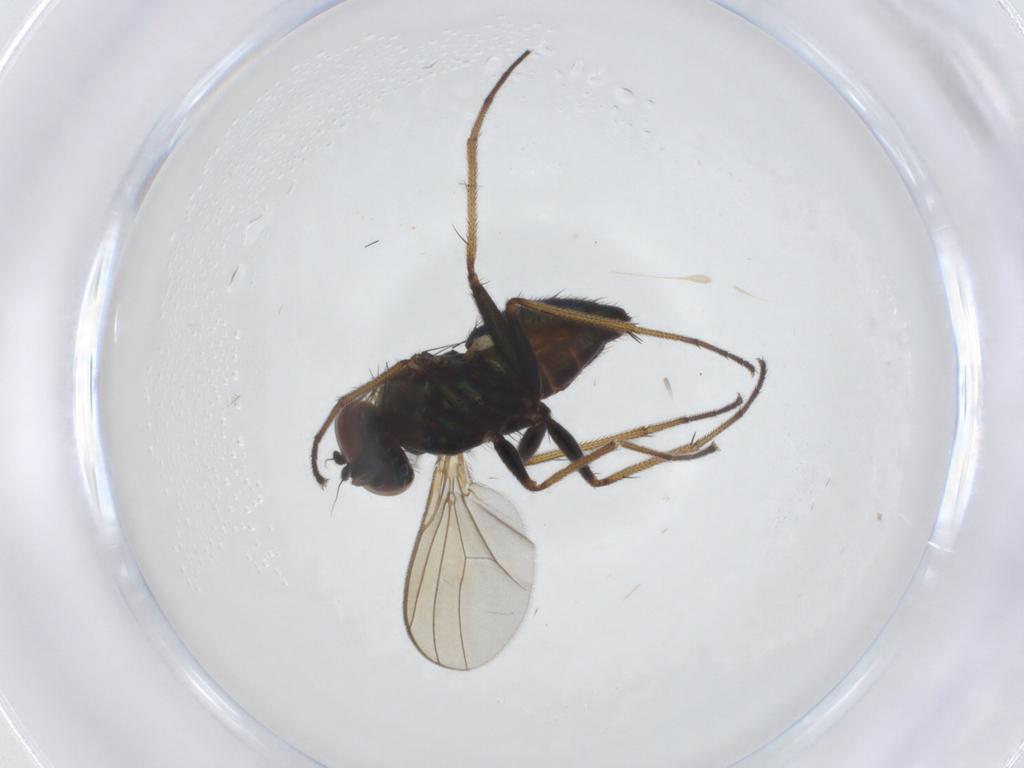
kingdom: Animalia
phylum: Arthropoda
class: Insecta
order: Diptera
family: Dolichopodidae
